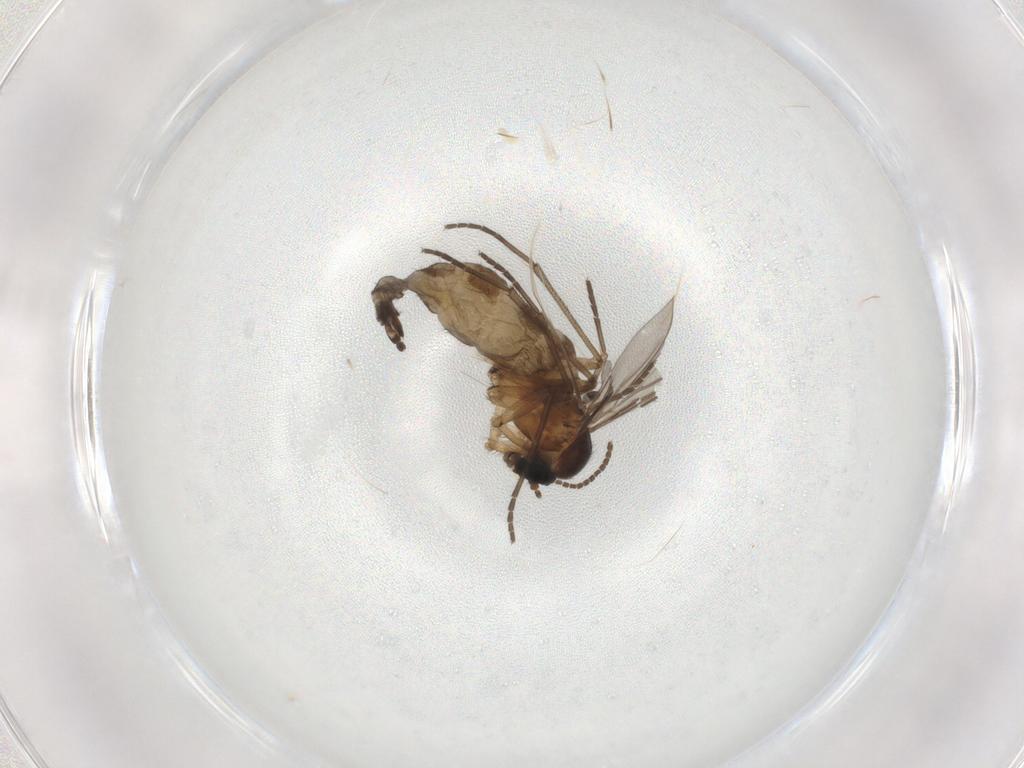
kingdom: Animalia
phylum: Arthropoda
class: Insecta
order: Diptera
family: Sciaridae
